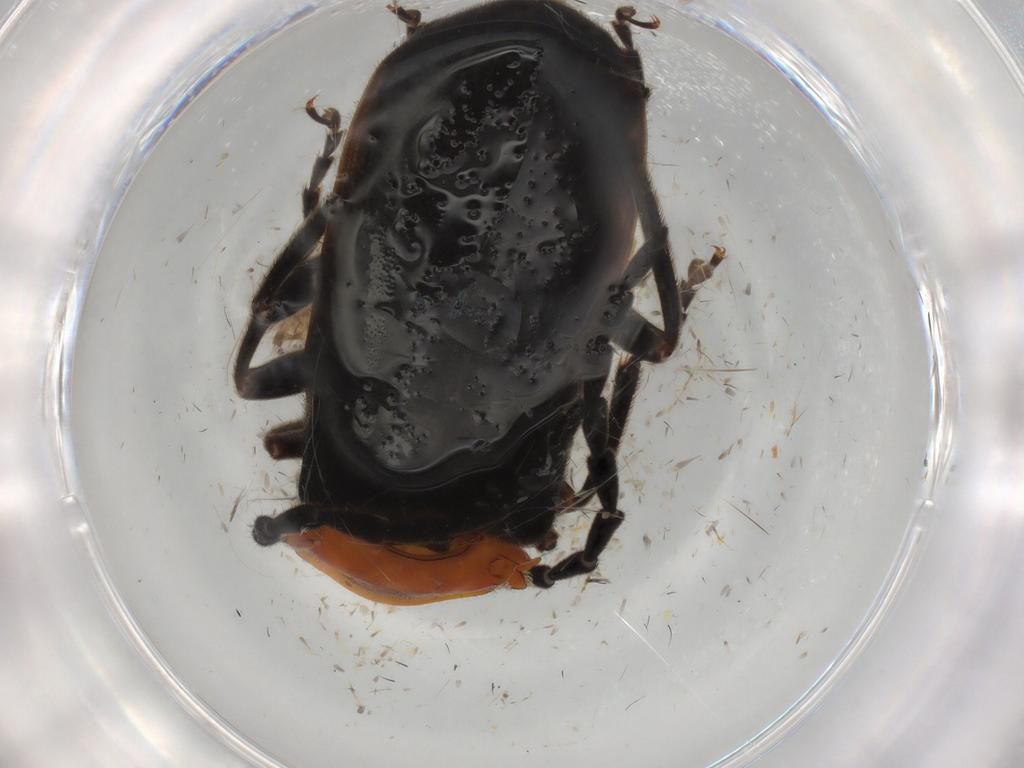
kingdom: Animalia
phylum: Arthropoda
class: Insecta
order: Coleoptera
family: Cantharidae
